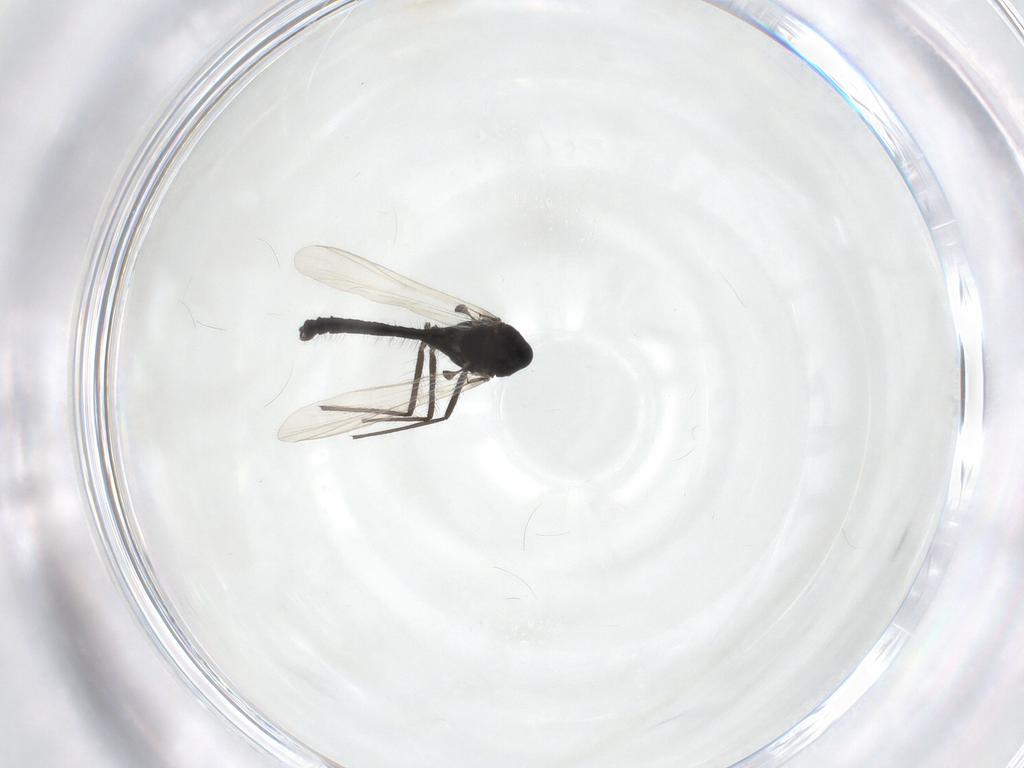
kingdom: Animalia
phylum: Arthropoda
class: Insecta
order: Diptera
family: Chironomidae
